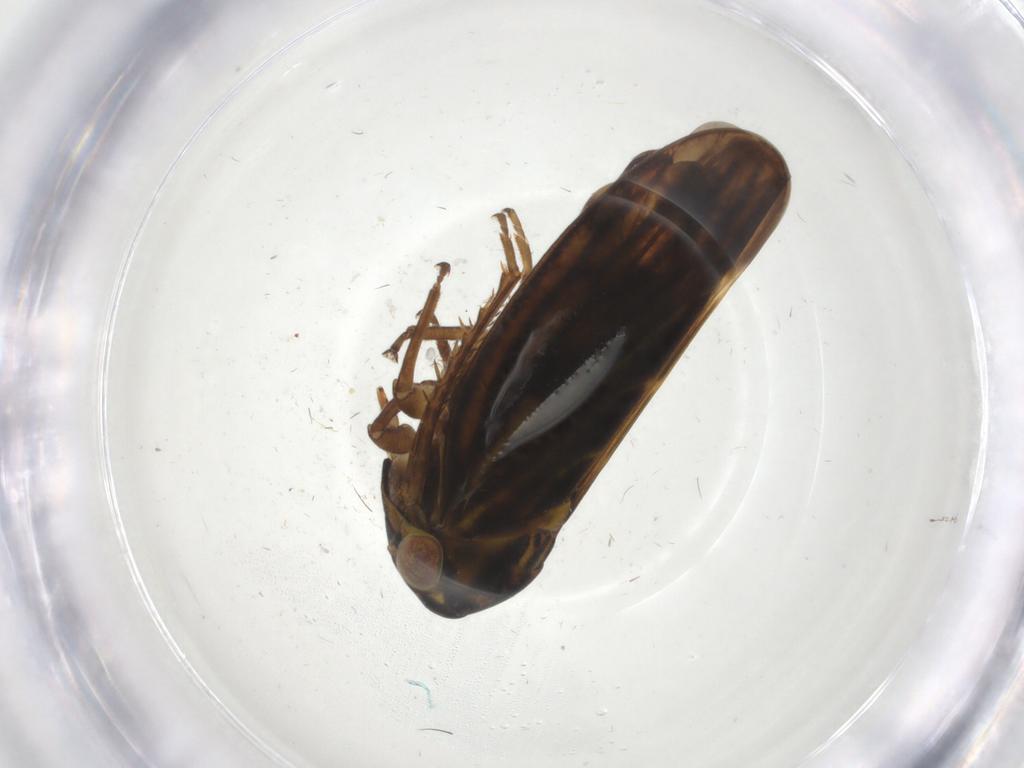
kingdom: Animalia
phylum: Arthropoda
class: Insecta
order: Hymenoptera
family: Formicidae
